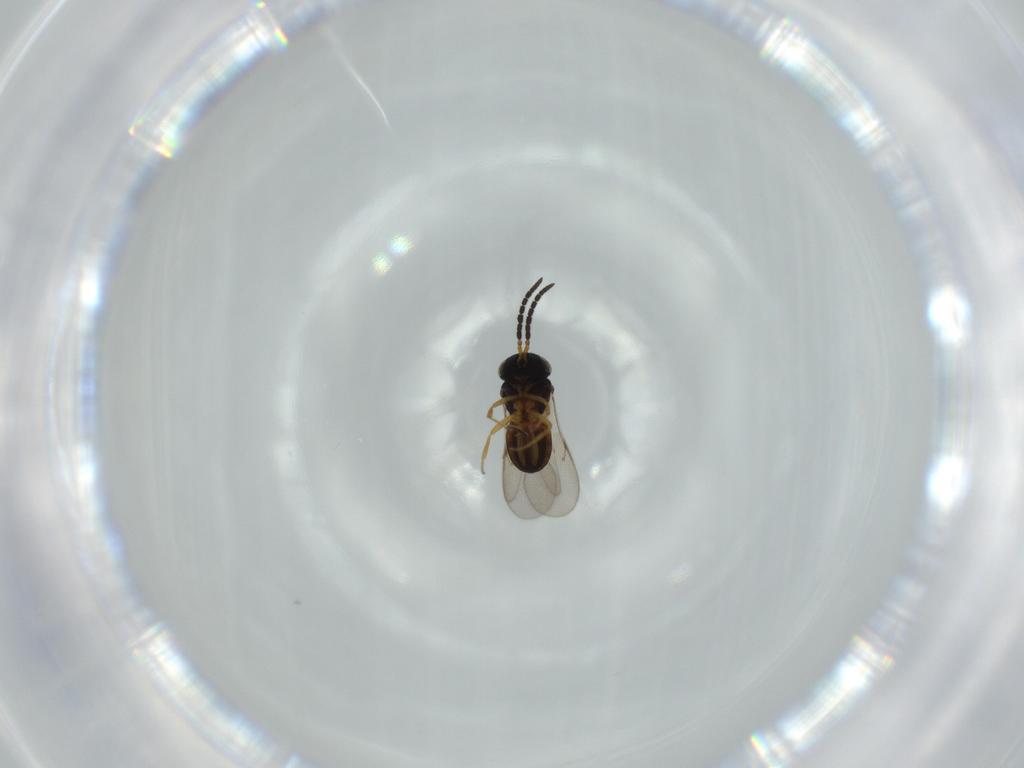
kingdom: Animalia
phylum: Arthropoda
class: Insecta
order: Hymenoptera
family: Scelionidae
